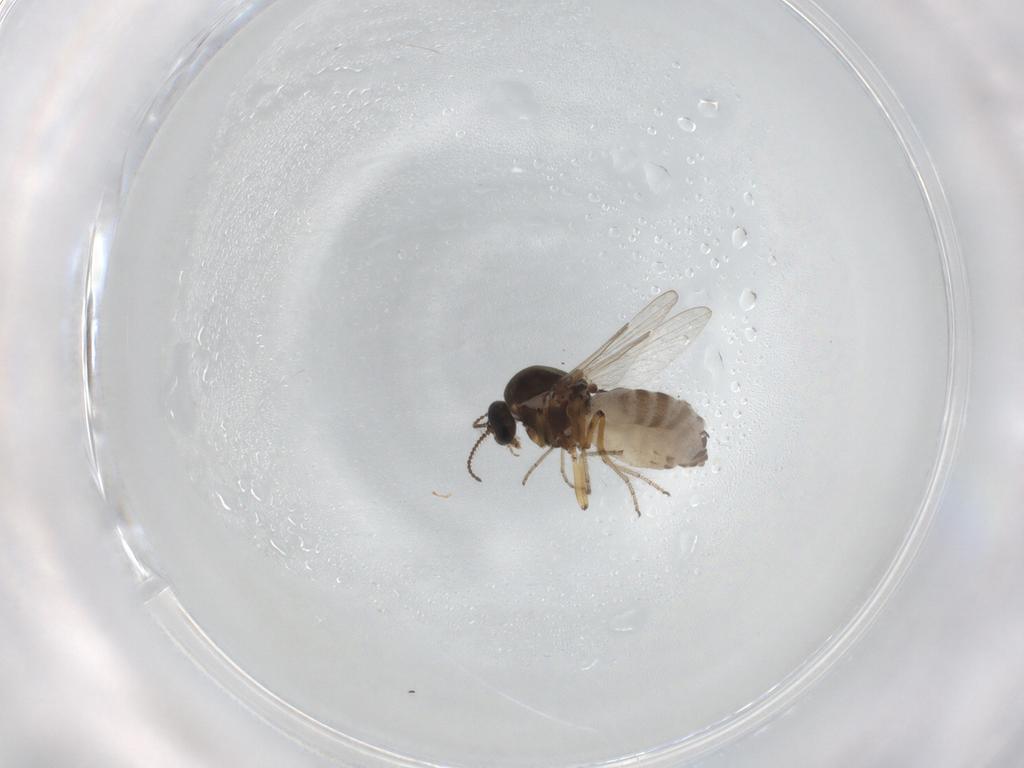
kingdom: Animalia
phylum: Arthropoda
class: Insecta
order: Diptera
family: Ceratopogonidae
